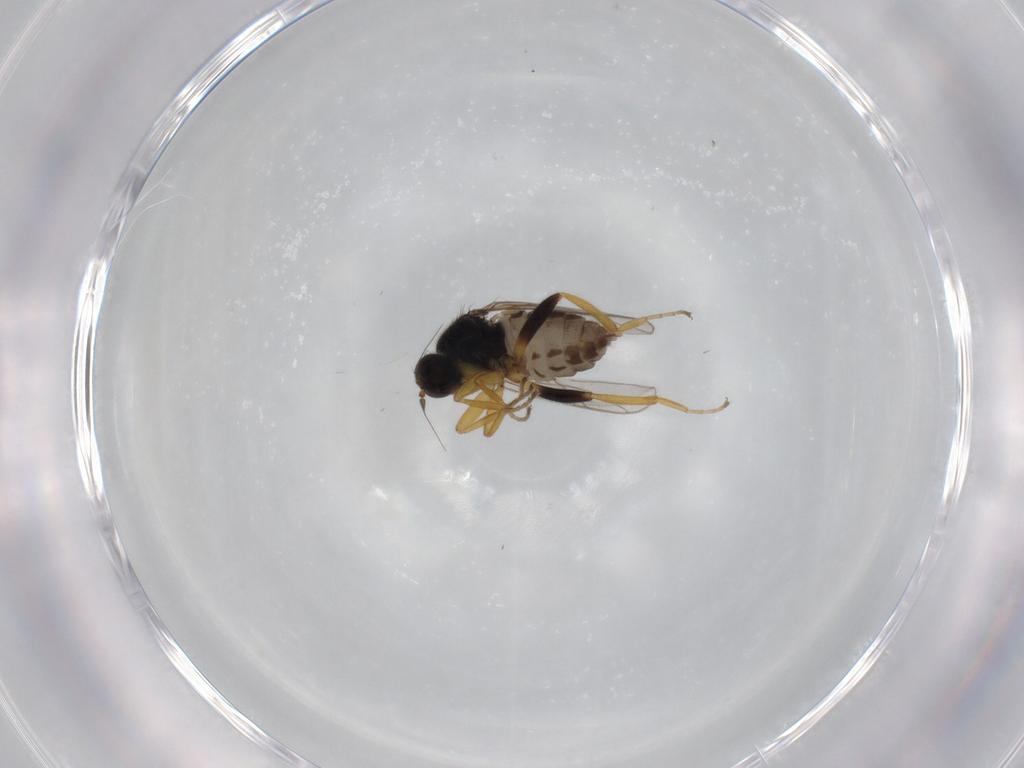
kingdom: Animalia
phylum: Arthropoda
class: Insecta
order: Diptera
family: Hybotidae
